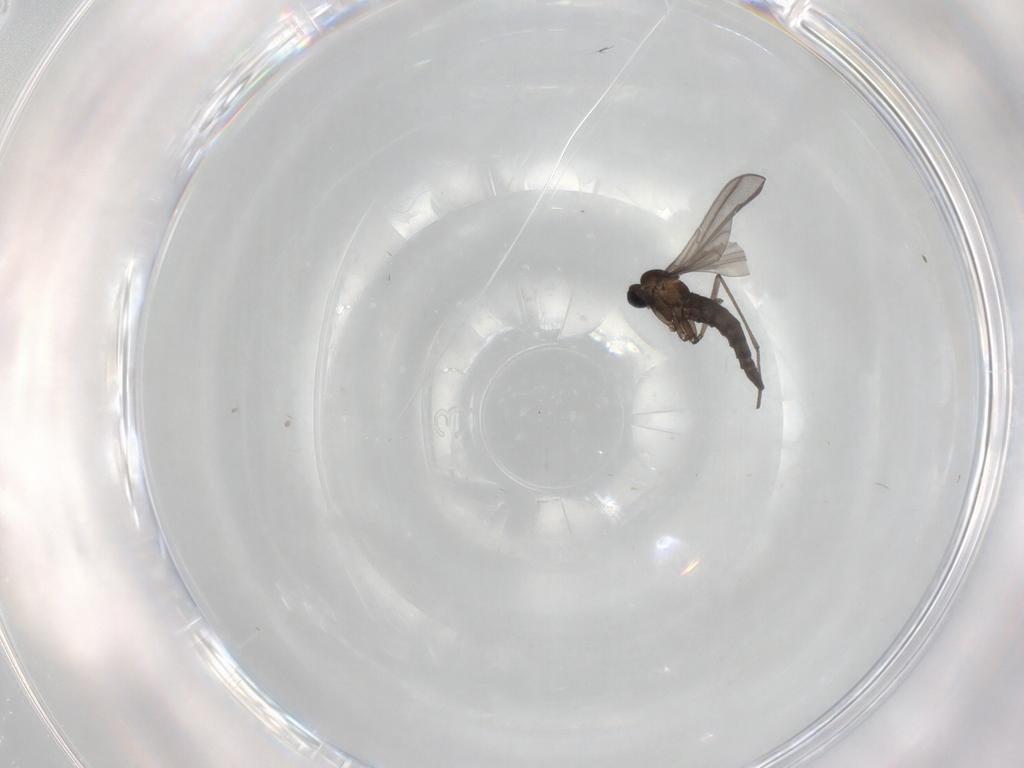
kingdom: Animalia
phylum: Arthropoda
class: Insecta
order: Diptera
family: Sciaridae
